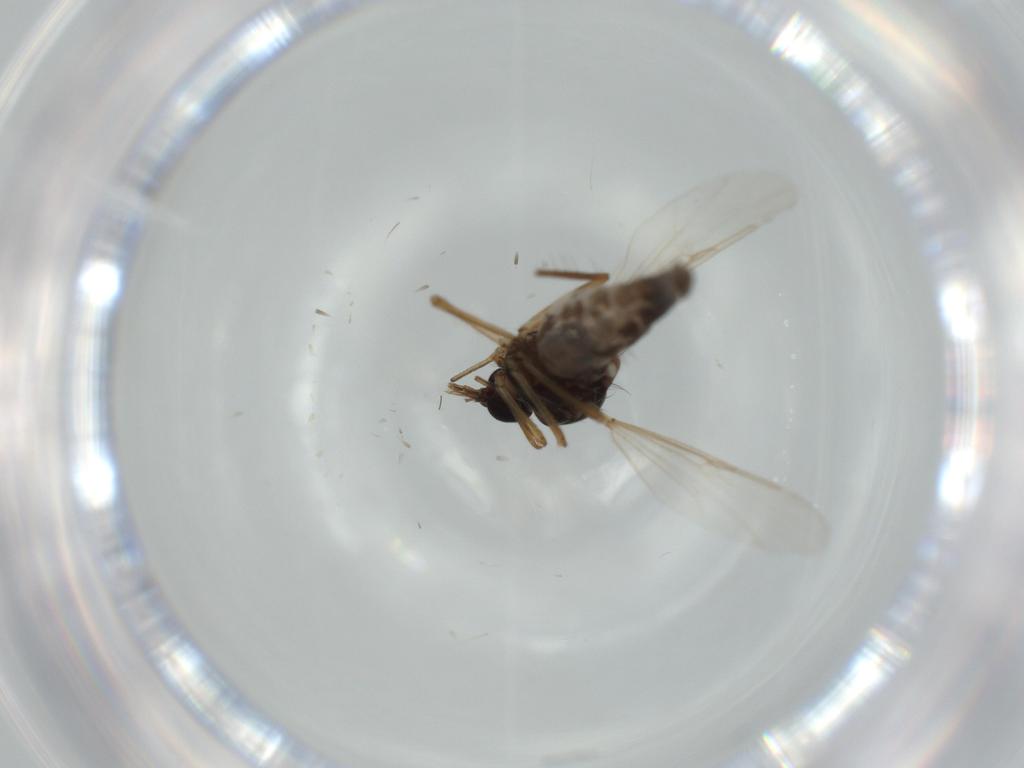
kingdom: Animalia
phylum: Arthropoda
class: Insecta
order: Diptera
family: Ceratopogonidae
